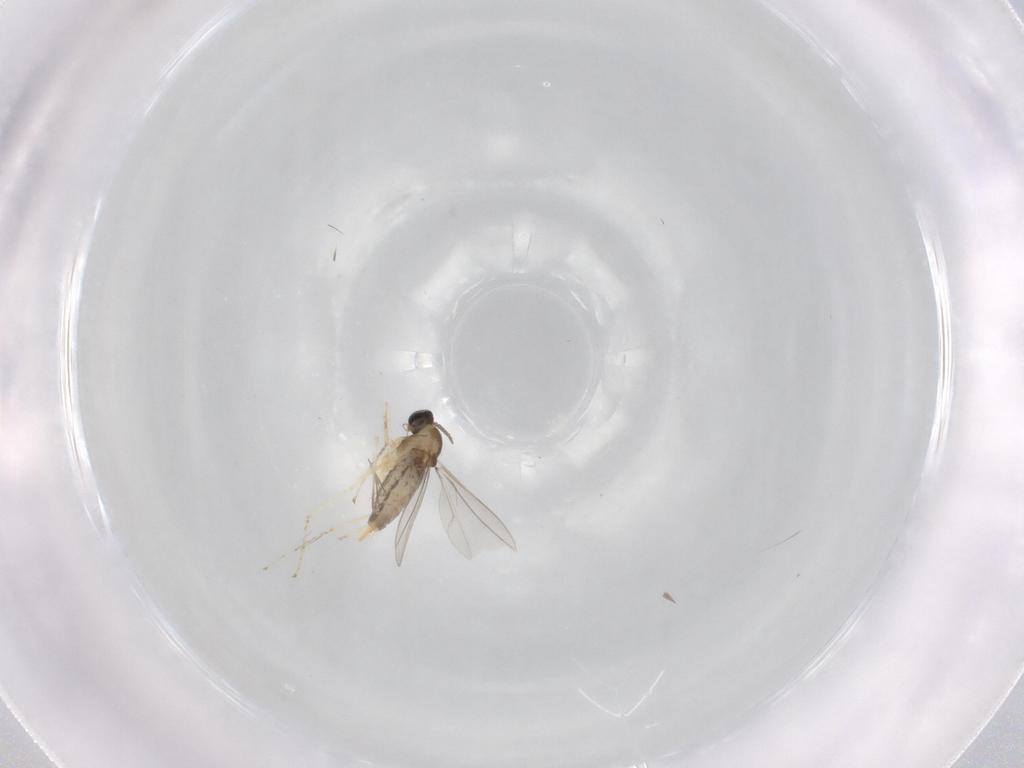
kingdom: Animalia
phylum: Arthropoda
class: Insecta
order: Diptera
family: Cecidomyiidae
